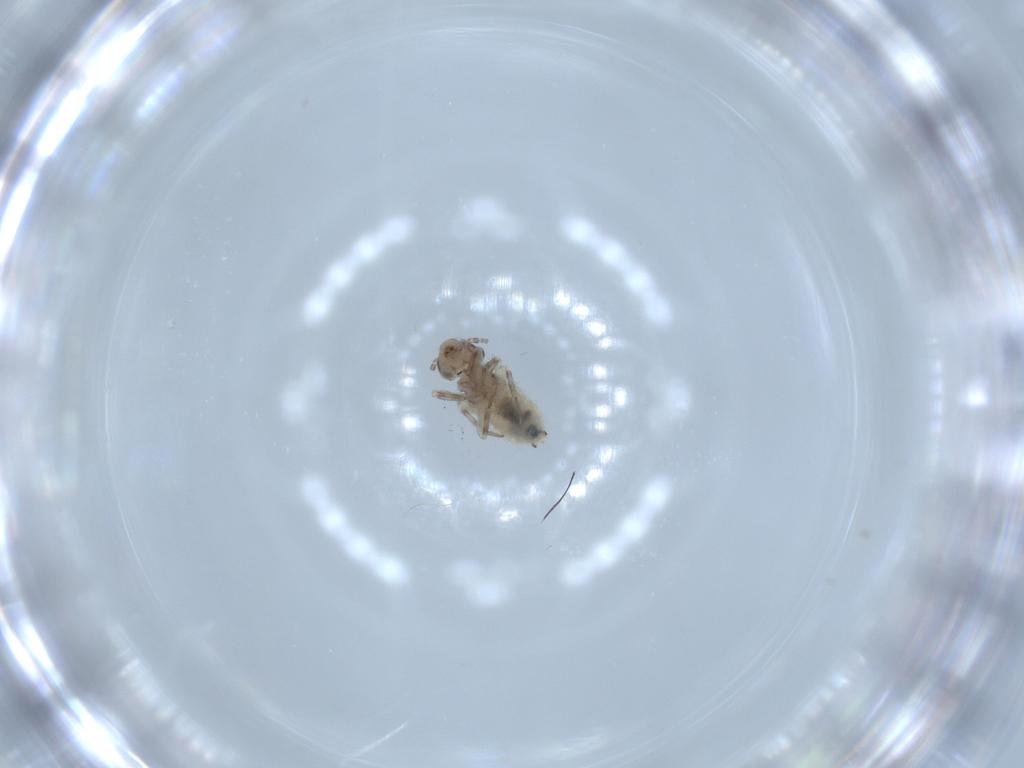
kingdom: Animalia
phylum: Arthropoda
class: Insecta
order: Psocodea
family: Lepidopsocidae
